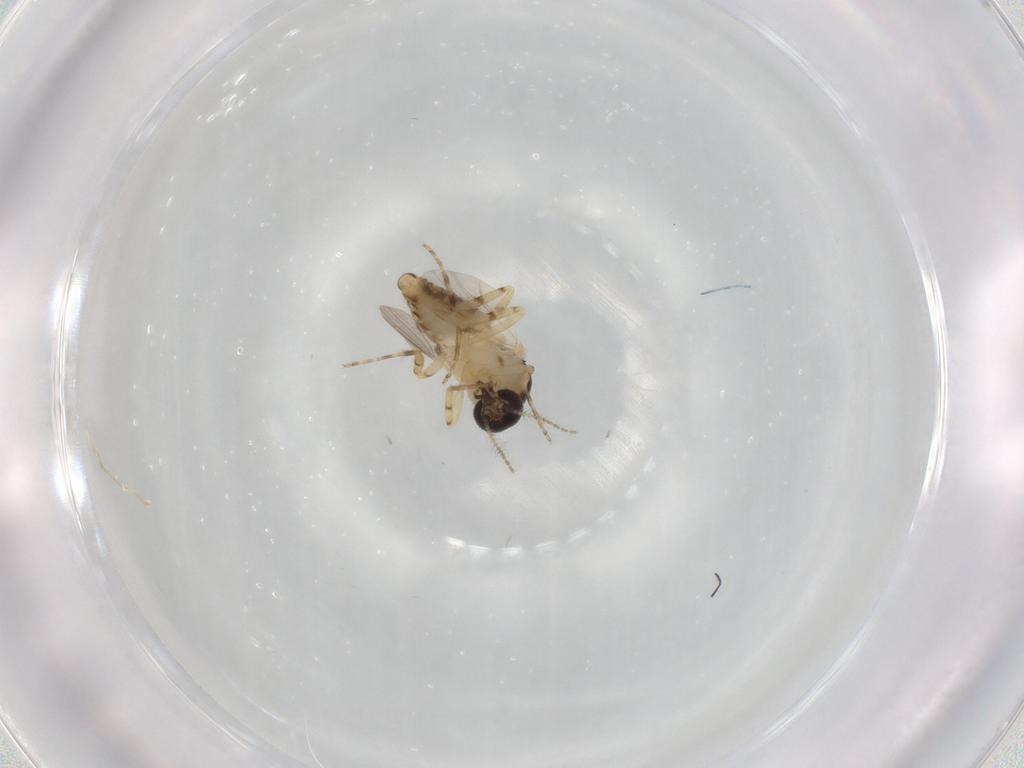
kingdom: Animalia
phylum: Arthropoda
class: Insecta
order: Diptera
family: Ceratopogonidae
